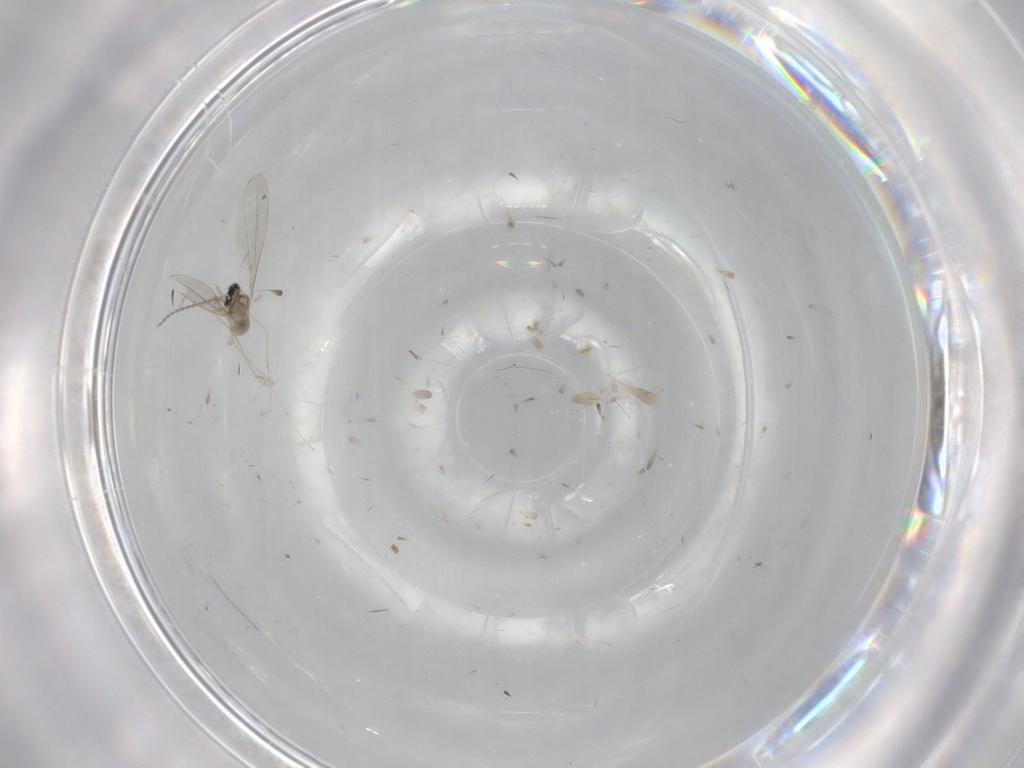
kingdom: Animalia
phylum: Arthropoda
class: Insecta
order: Diptera
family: Cecidomyiidae
